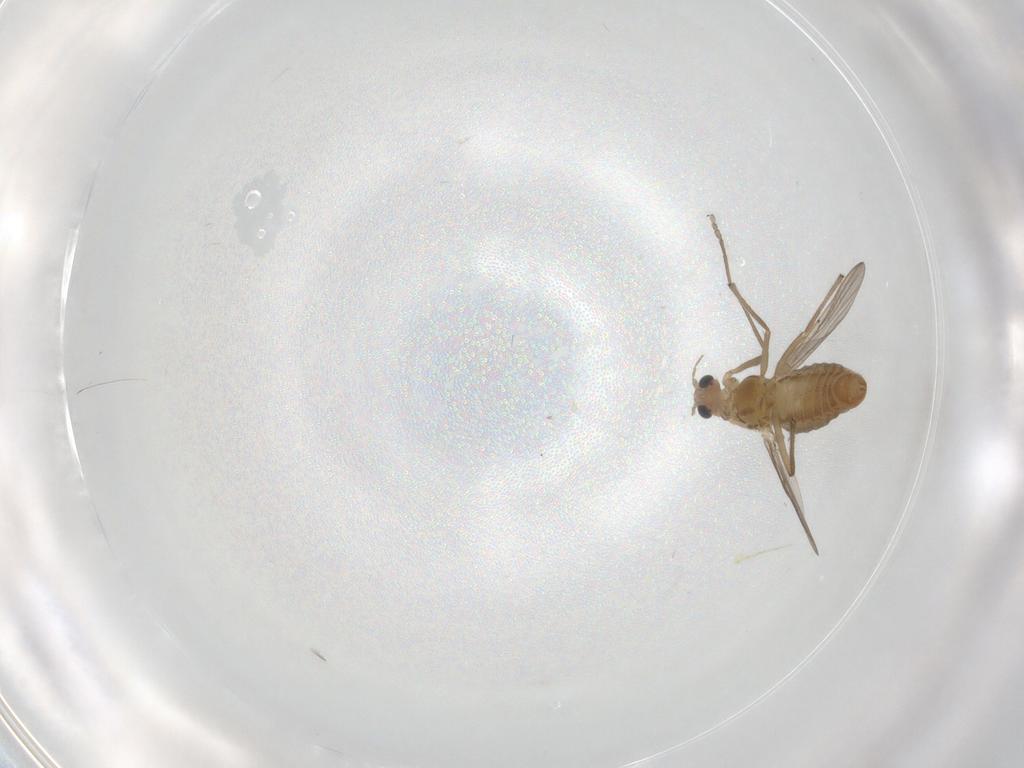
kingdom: Animalia
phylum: Arthropoda
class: Insecta
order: Diptera
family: Chironomidae
